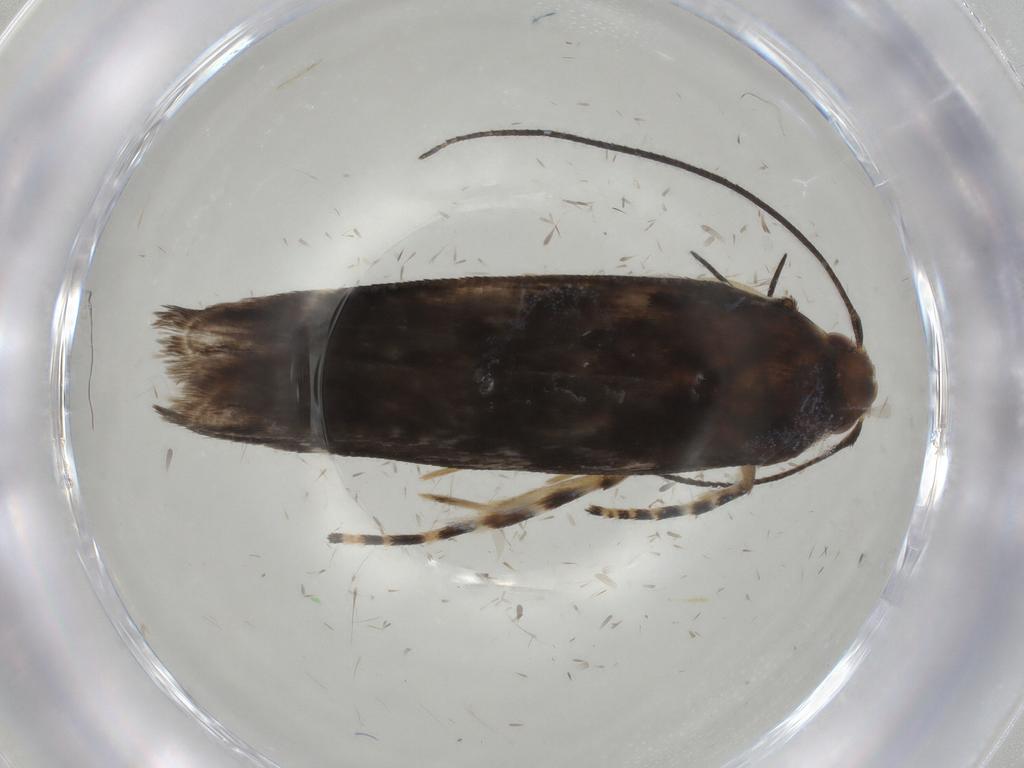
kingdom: Animalia
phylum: Arthropoda
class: Insecta
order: Lepidoptera
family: Crambidae
